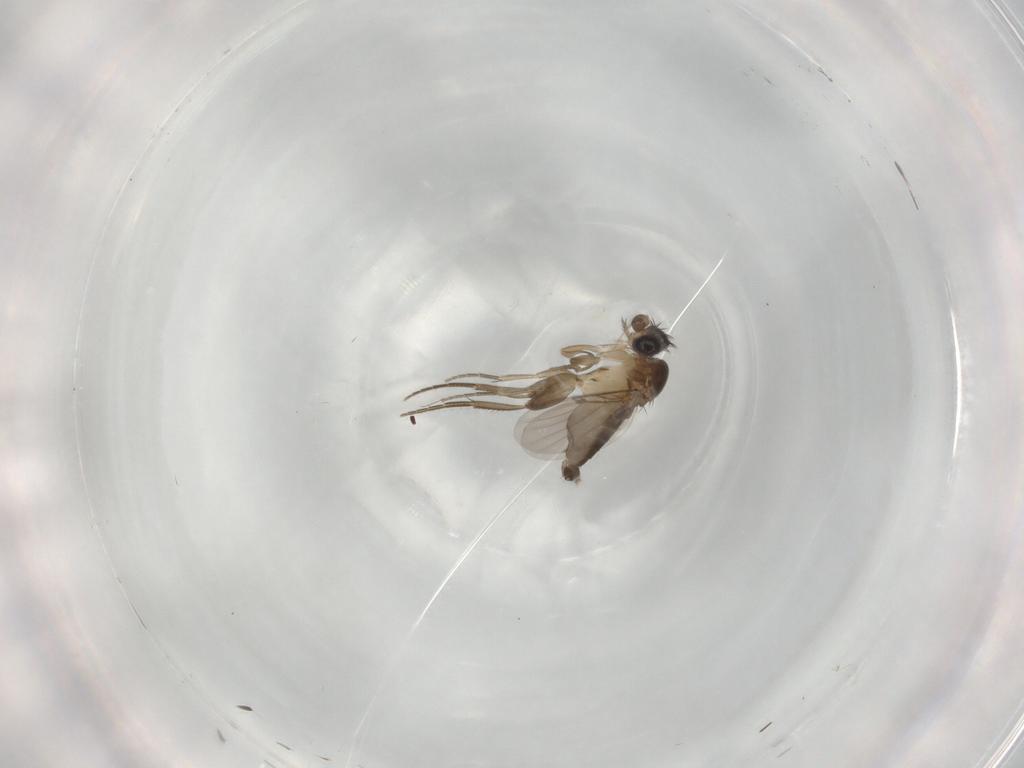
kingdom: Animalia
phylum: Arthropoda
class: Insecta
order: Diptera
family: Phoridae
